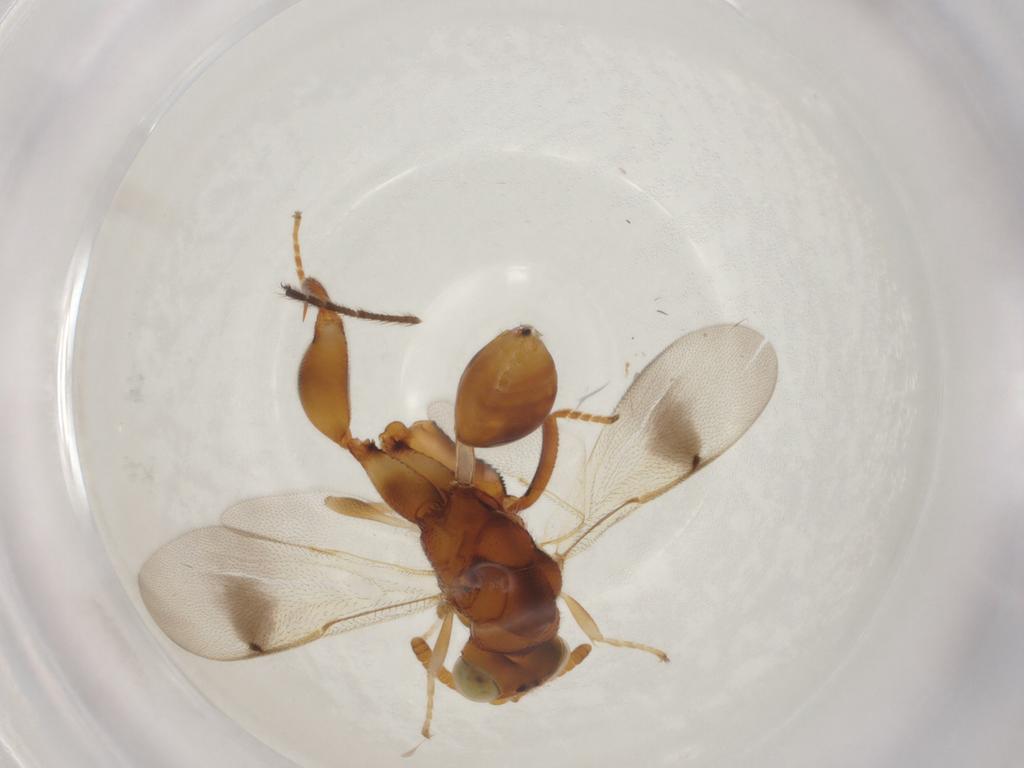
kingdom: Animalia
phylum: Arthropoda
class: Insecta
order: Hymenoptera
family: Chalcididae
